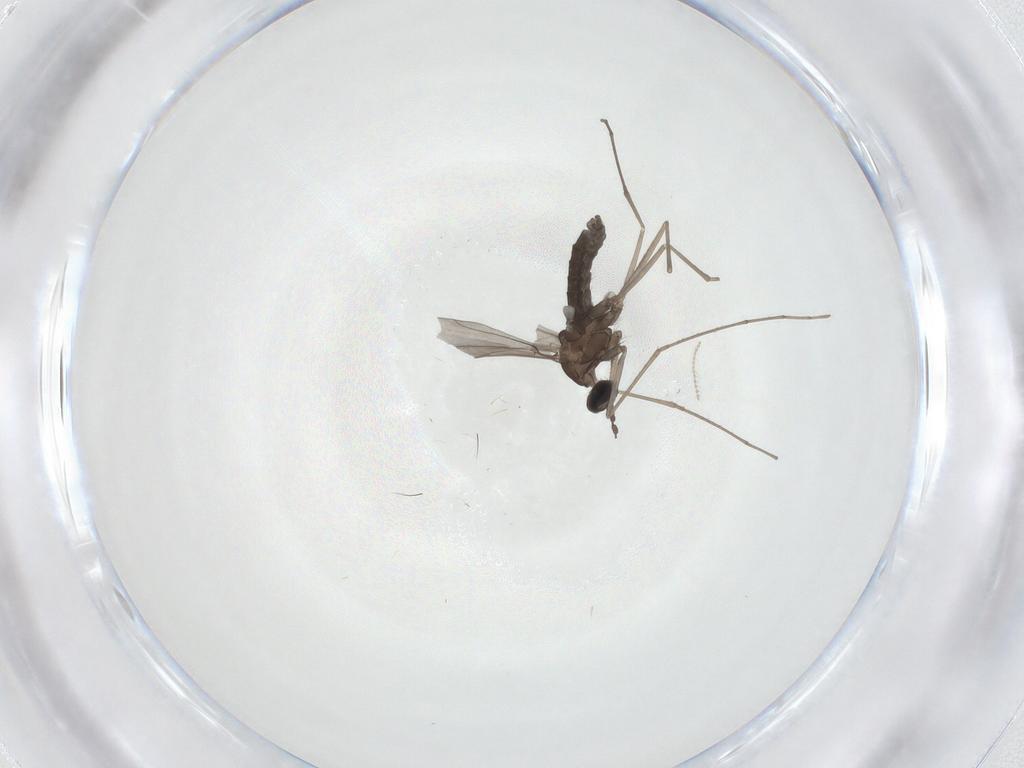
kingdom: Animalia
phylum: Arthropoda
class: Insecta
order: Diptera
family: Cecidomyiidae
